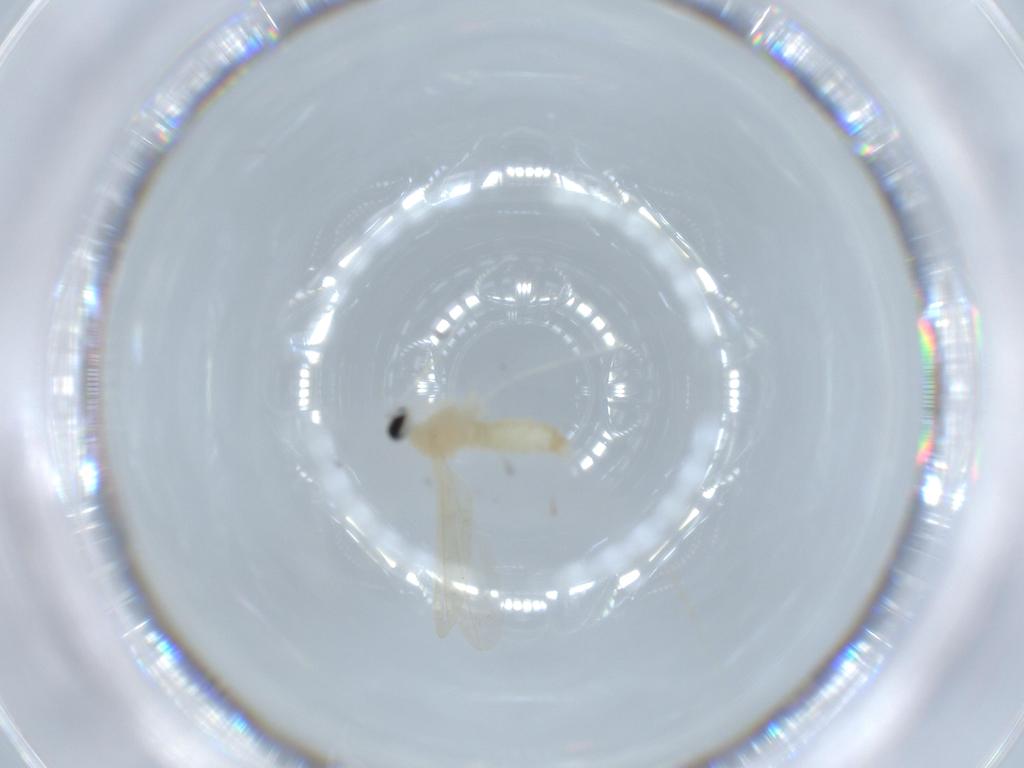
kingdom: Animalia
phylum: Arthropoda
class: Insecta
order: Diptera
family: Cecidomyiidae
